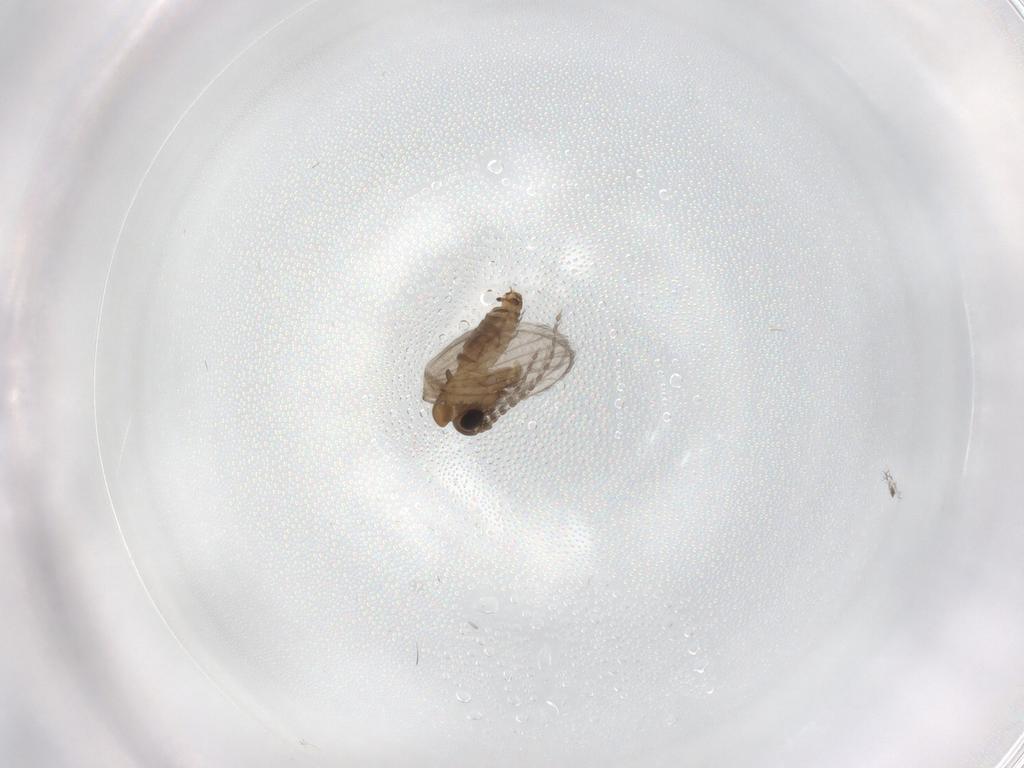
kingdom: Animalia
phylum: Arthropoda
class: Insecta
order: Diptera
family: Psychodidae
